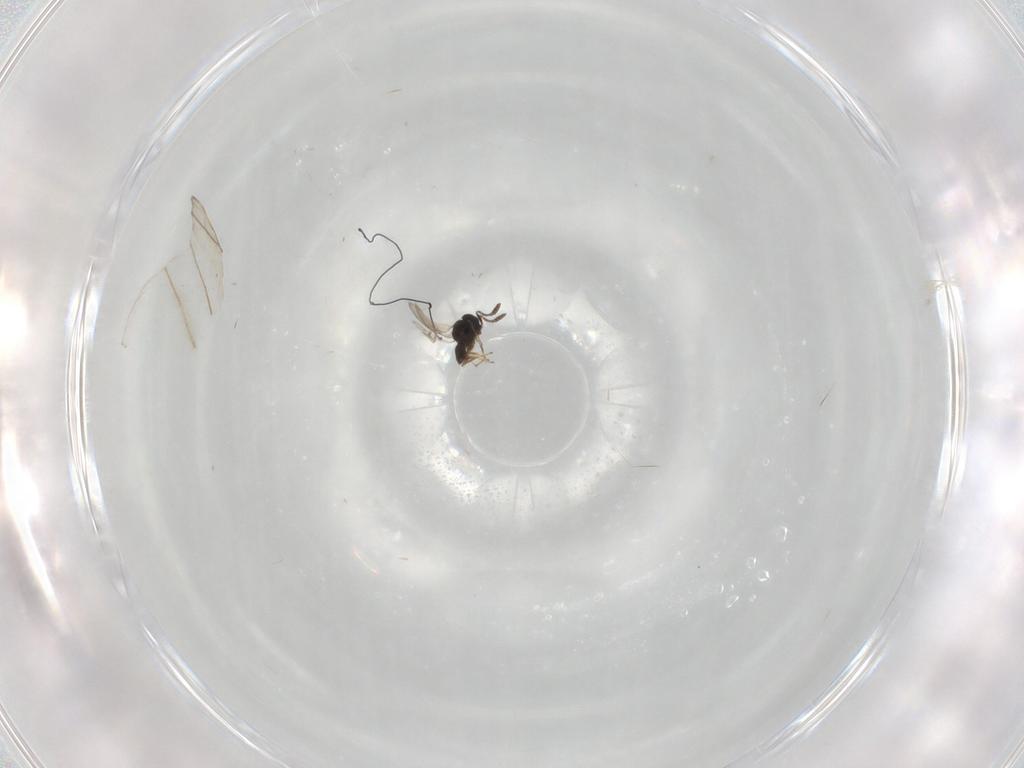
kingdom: Animalia
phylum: Arthropoda
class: Insecta
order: Hymenoptera
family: Scelionidae
